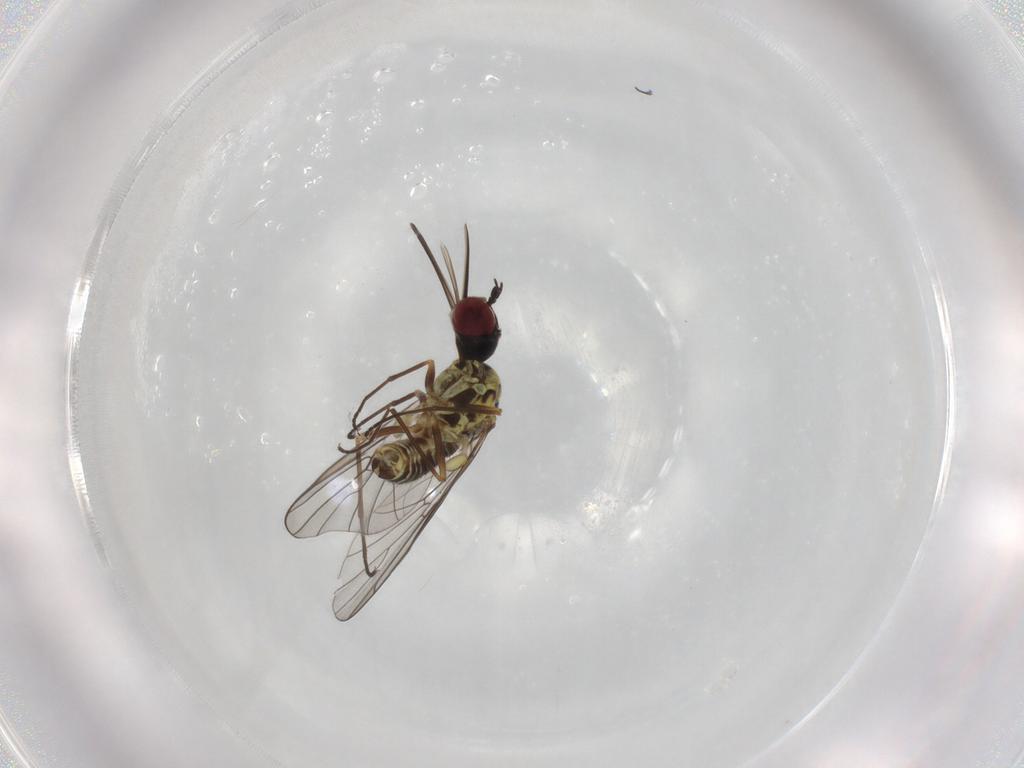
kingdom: Animalia
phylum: Arthropoda
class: Insecta
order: Diptera
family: Bombyliidae
